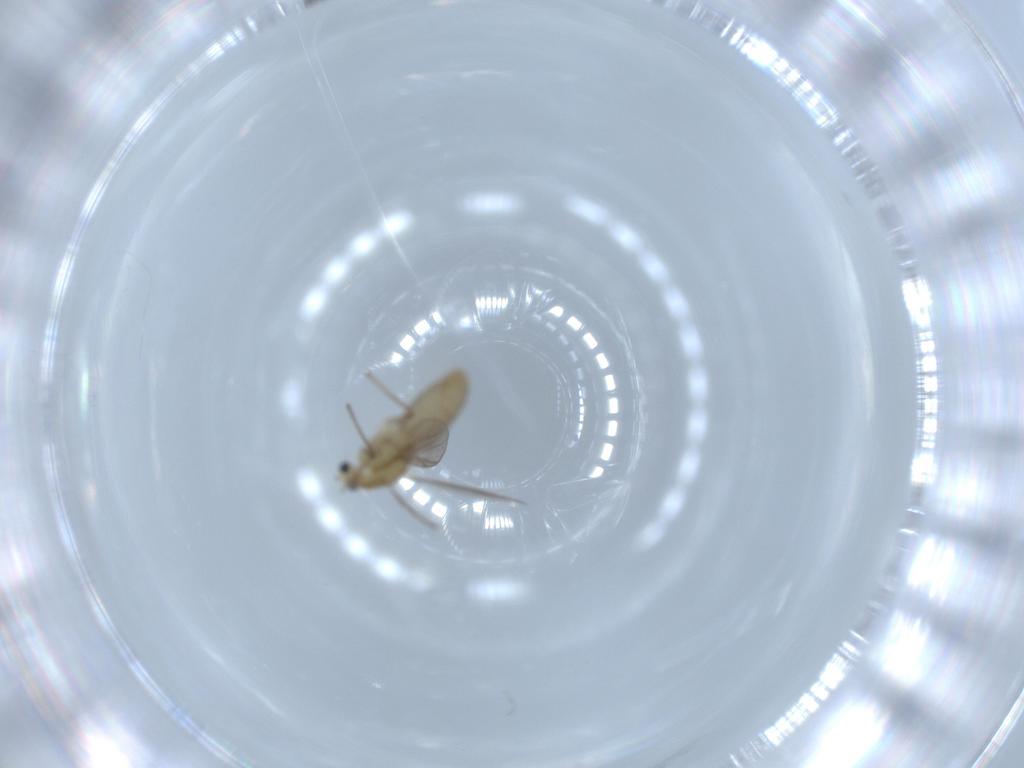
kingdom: Animalia
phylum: Arthropoda
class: Insecta
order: Diptera
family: Chironomidae
